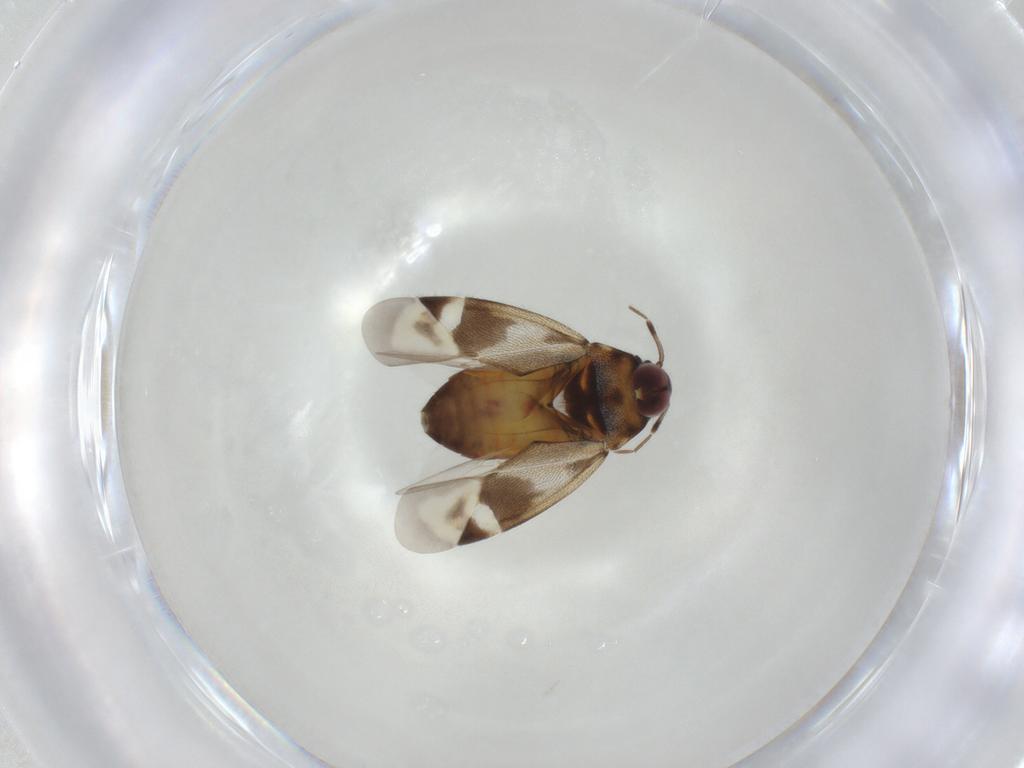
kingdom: Animalia
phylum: Arthropoda
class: Insecta
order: Hemiptera
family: Miridae
